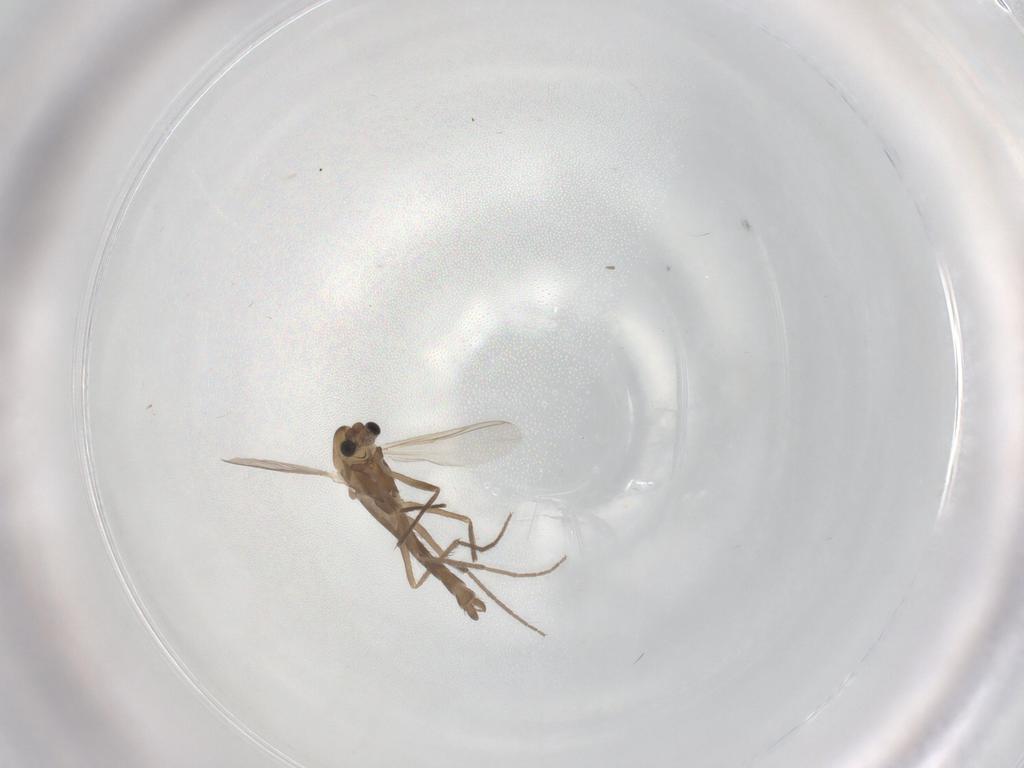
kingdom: Animalia
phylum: Arthropoda
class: Insecta
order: Diptera
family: Chironomidae
